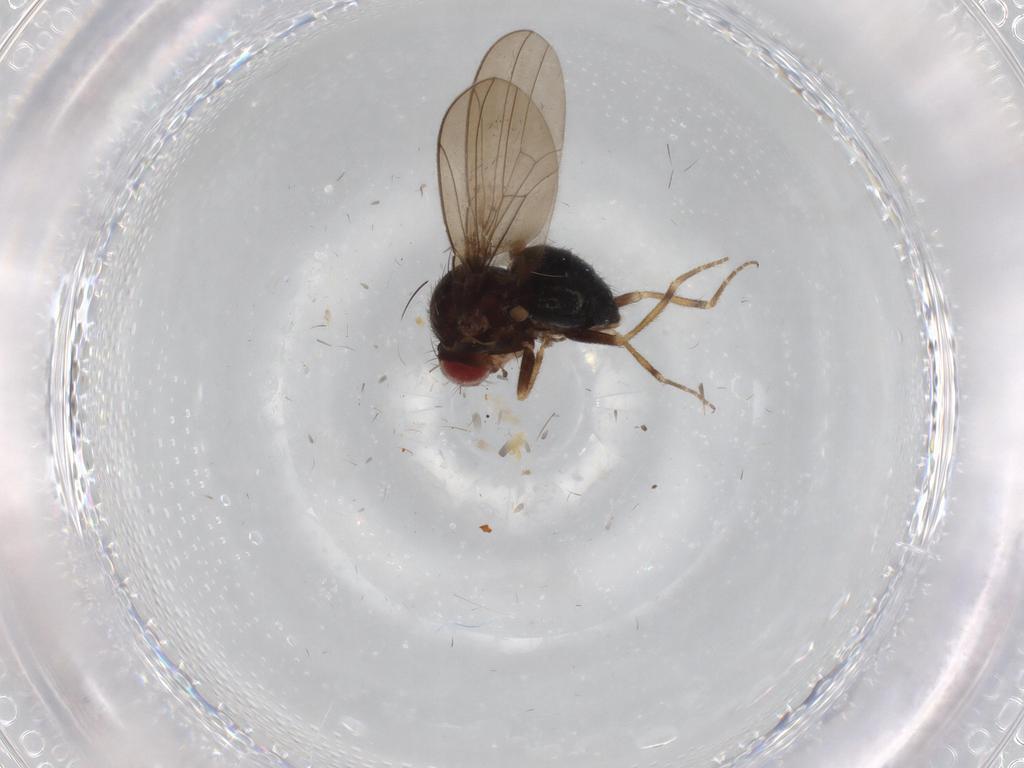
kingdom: Animalia
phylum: Arthropoda
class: Insecta
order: Diptera
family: Drosophilidae
